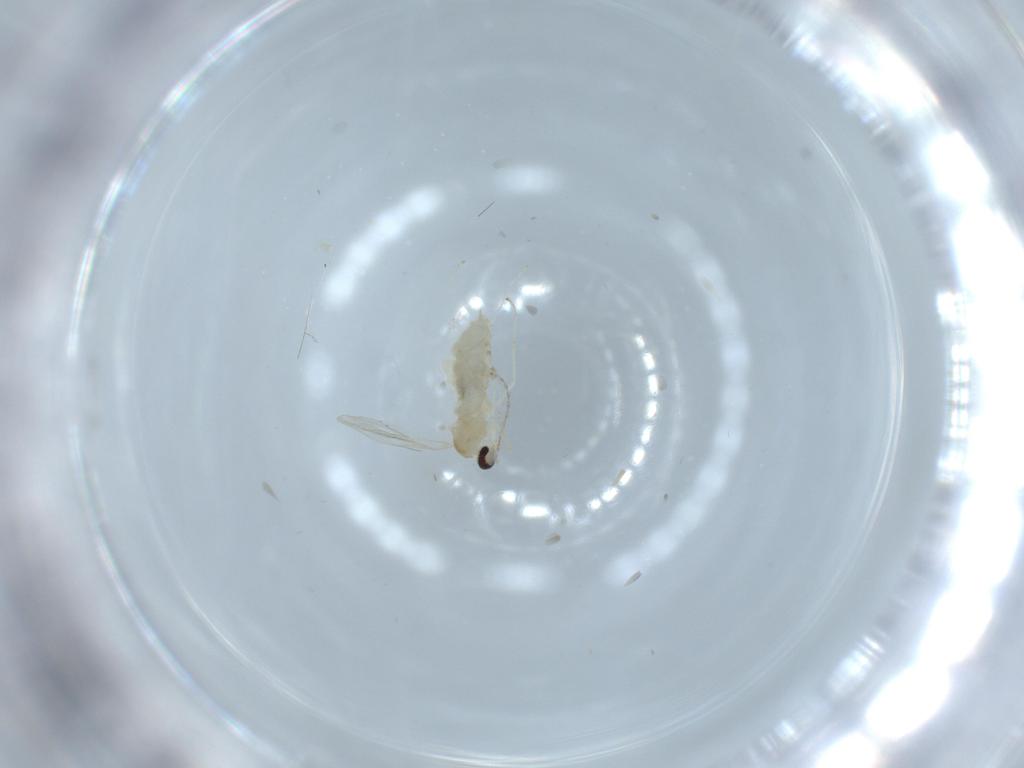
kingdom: Animalia
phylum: Arthropoda
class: Insecta
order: Diptera
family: Cecidomyiidae
